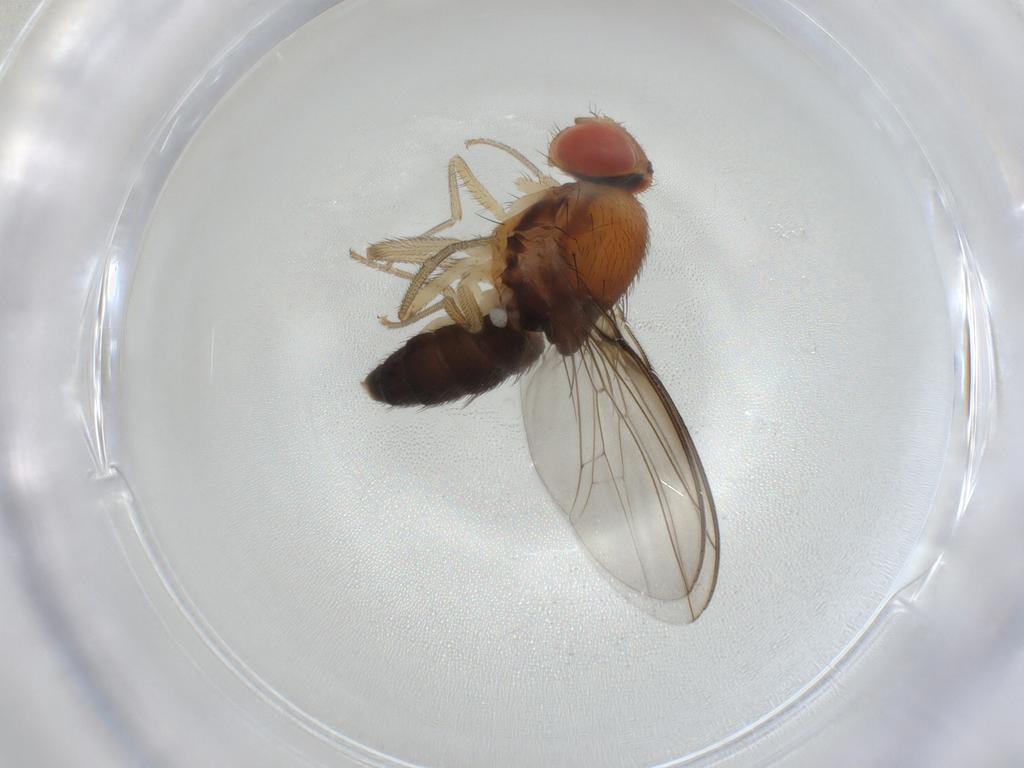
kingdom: Animalia
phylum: Arthropoda
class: Insecta
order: Diptera
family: Drosophilidae
